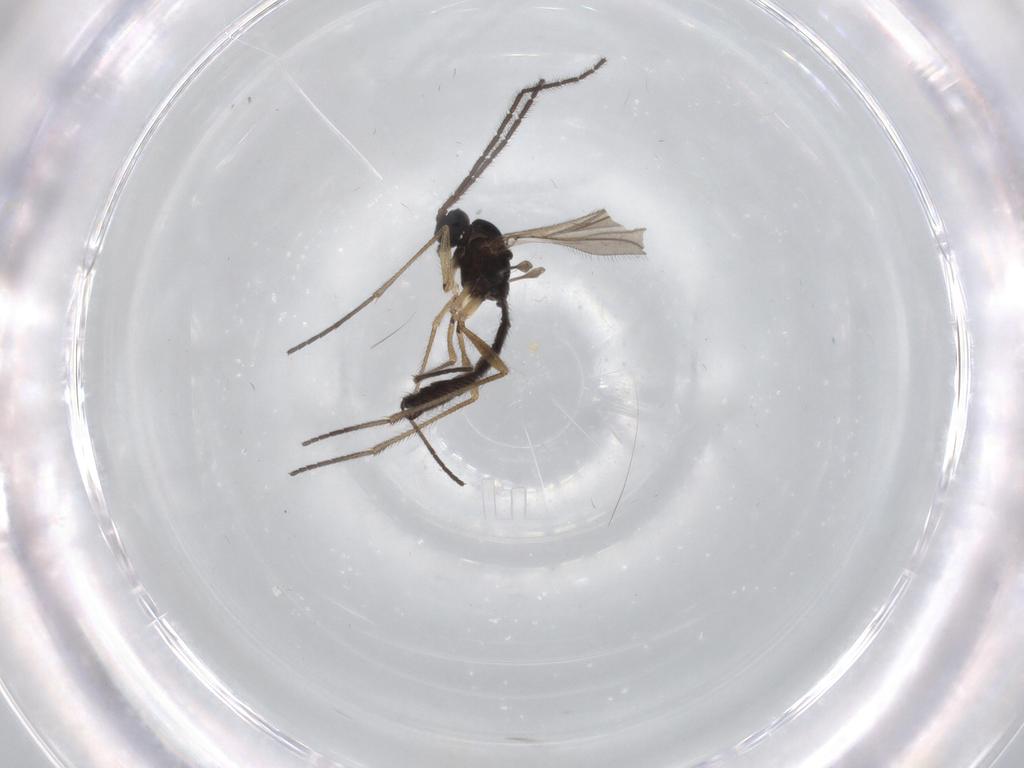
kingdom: Animalia
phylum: Arthropoda
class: Insecta
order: Diptera
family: Sciaridae
